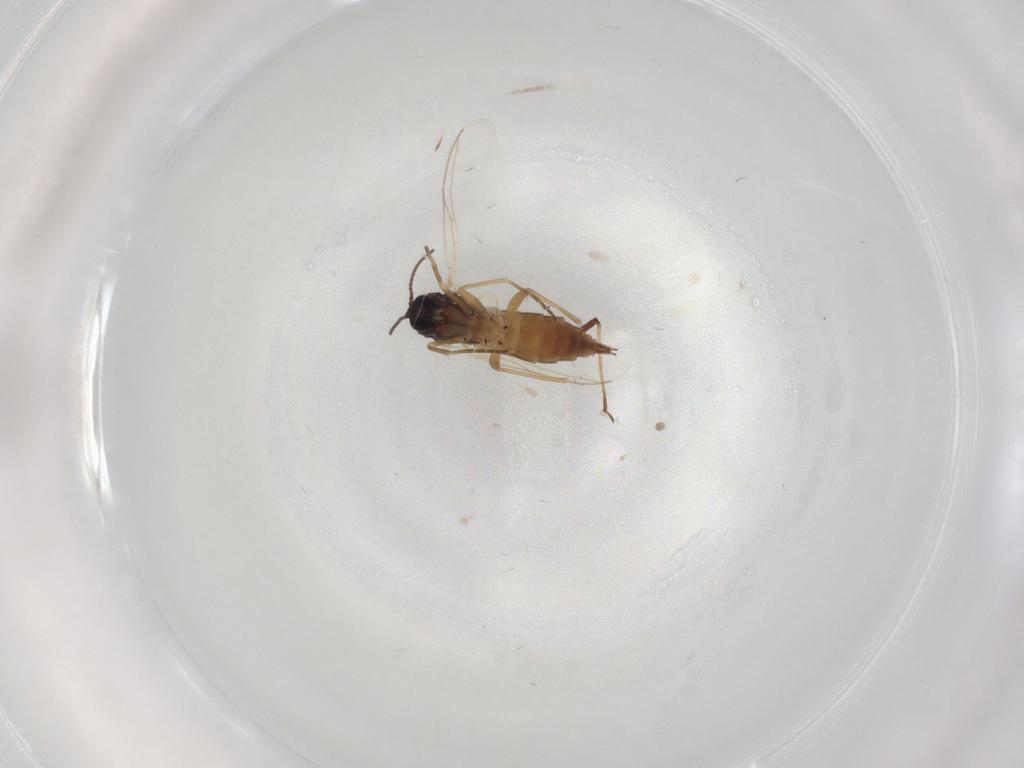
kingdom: Animalia
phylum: Arthropoda
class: Insecta
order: Diptera
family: Sciaridae
